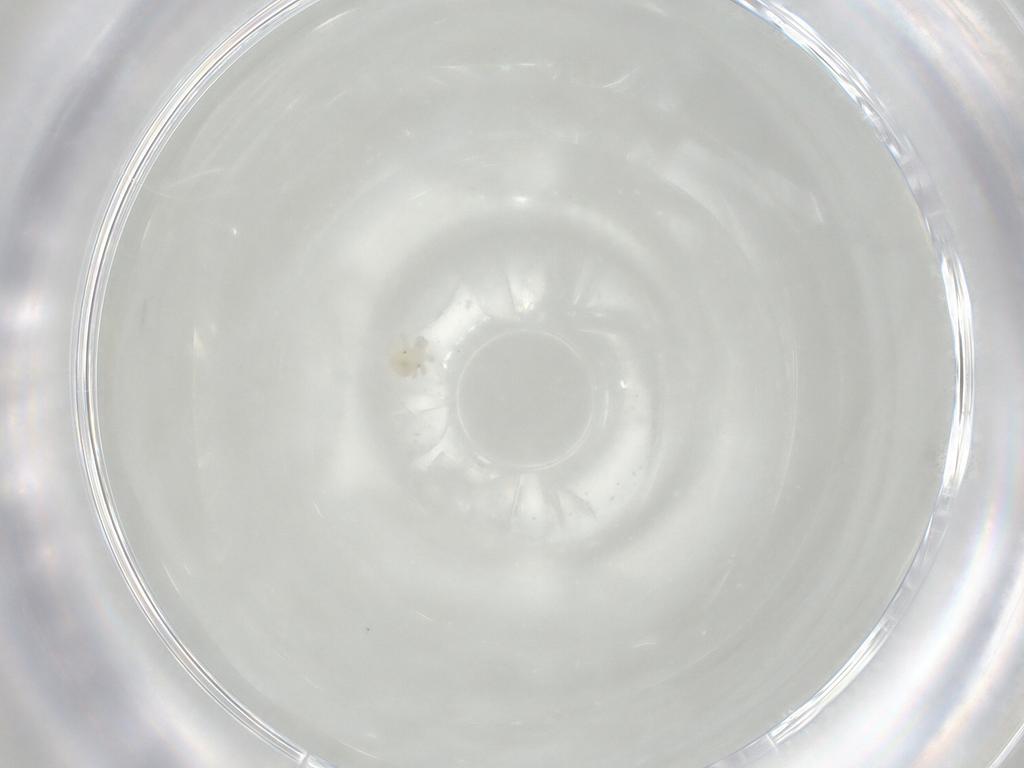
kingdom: Animalia
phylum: Arthropoda
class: Arachnida
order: Trombidiformes
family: Anystidae
